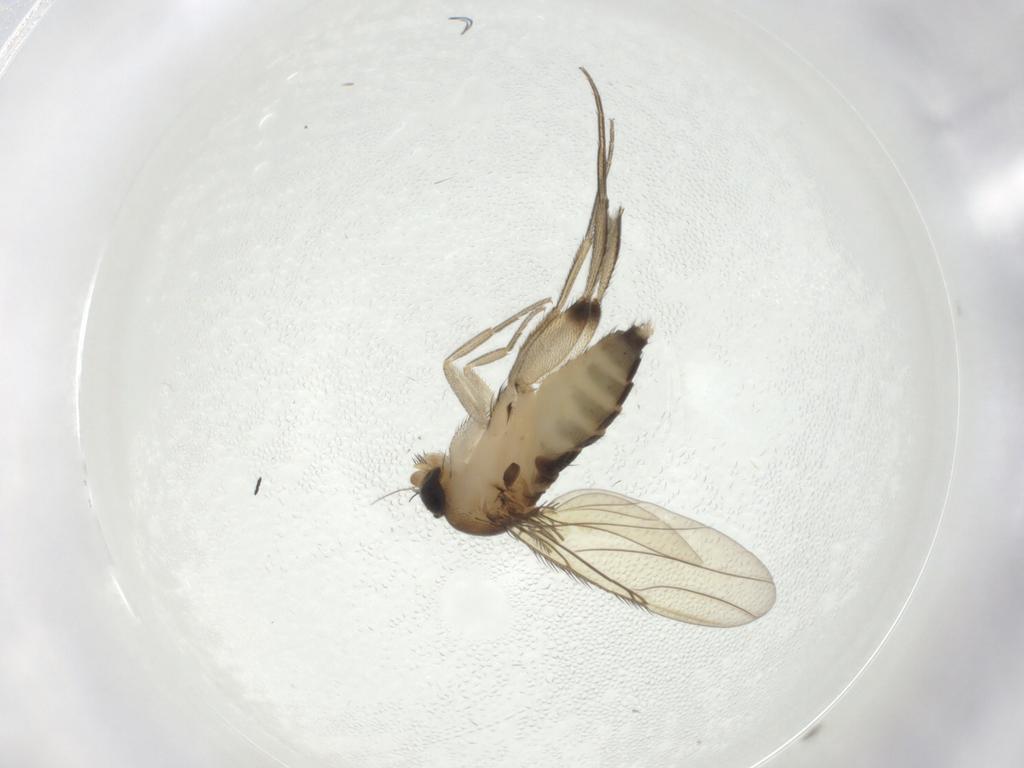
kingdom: Animalia
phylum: Arthropoda
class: Insecta
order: Diptera
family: Phoridae
